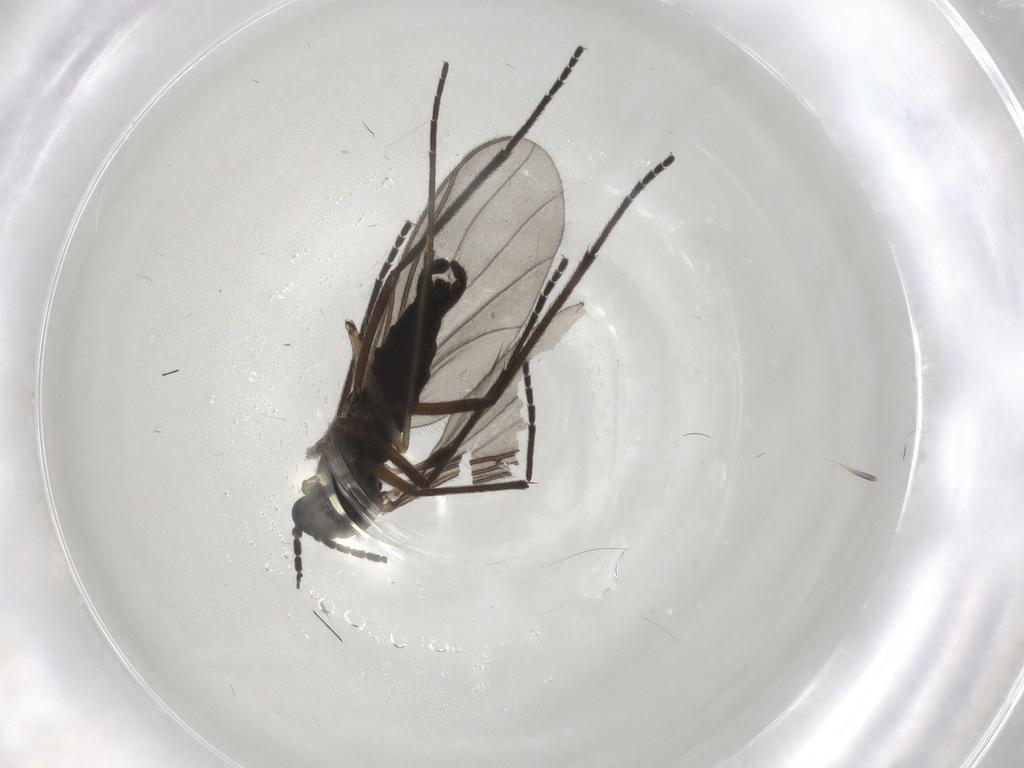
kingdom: Animalia
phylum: Arthropoda
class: Insecta
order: Diptera
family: Sciaridae
